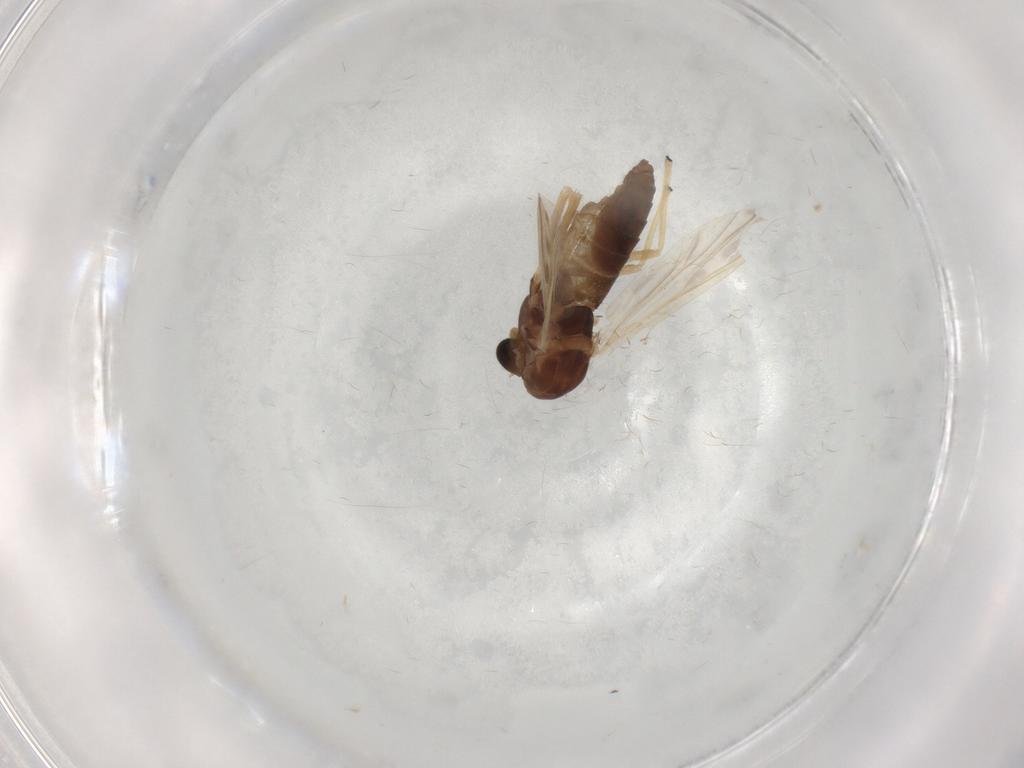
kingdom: Animalia
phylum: Arthropoda
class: Insecta
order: Diptera
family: Chironomidae
